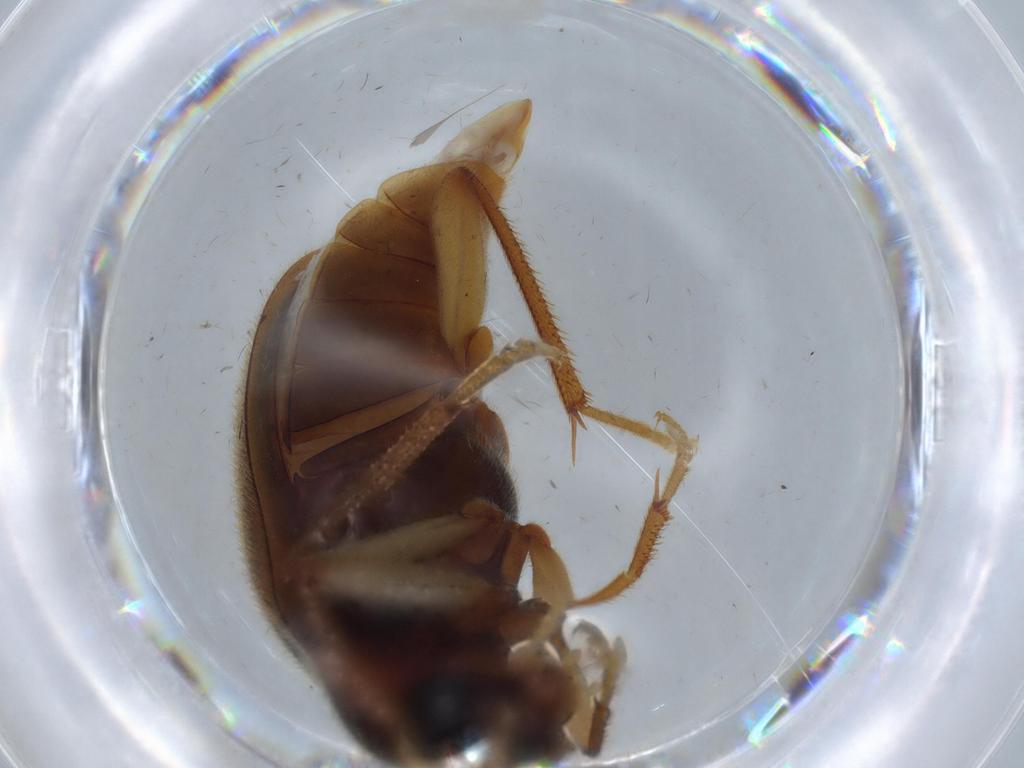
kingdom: Animalia
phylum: Arthropoda
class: Insecta
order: Coleoptera
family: Ptilodactylidae
